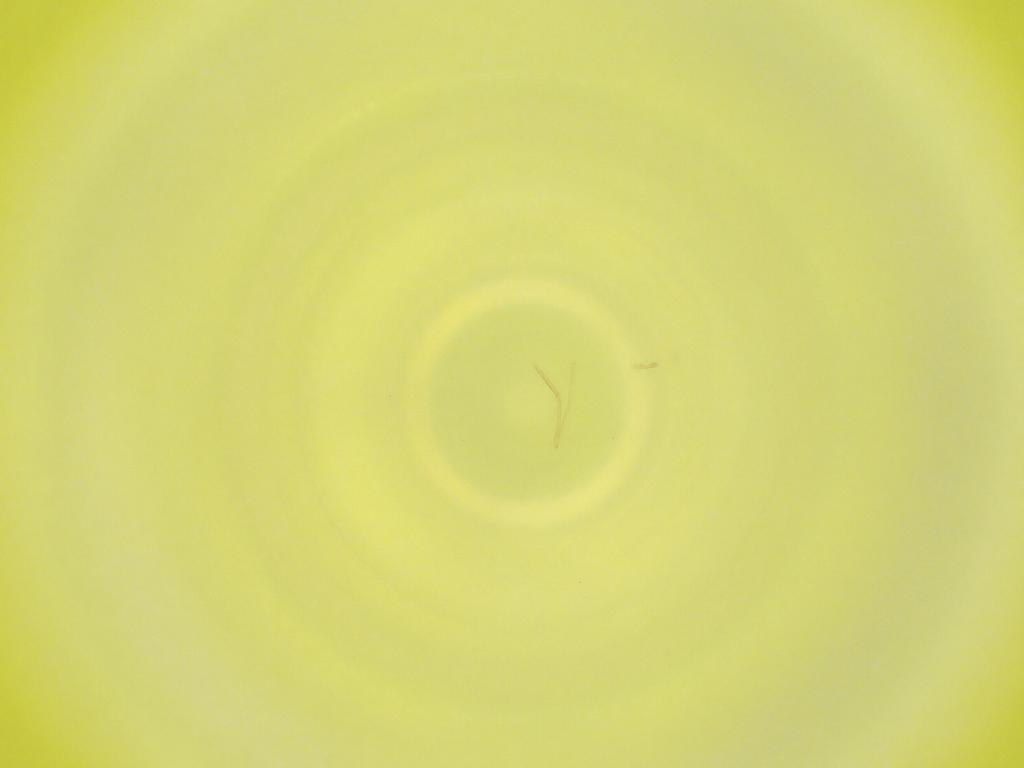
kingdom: Animalia
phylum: Arthropoda
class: Insecta
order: Diptera
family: Cecidomyiidae
